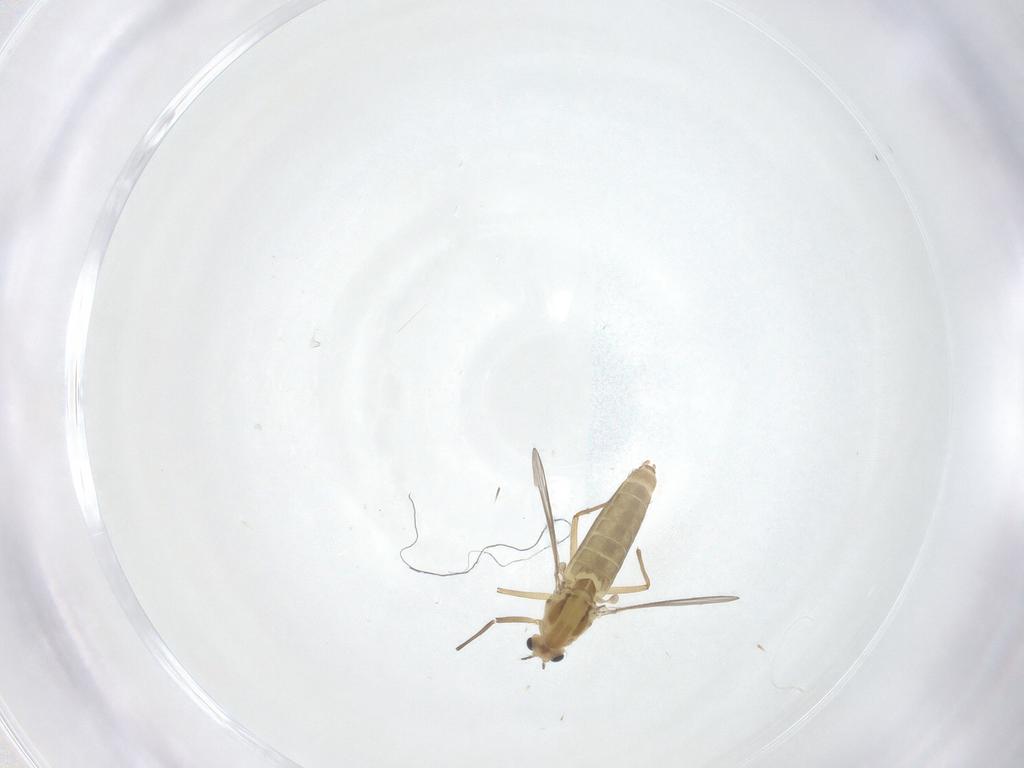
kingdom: Animalia
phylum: Arthropoda
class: Insecta
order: Diptera
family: Chironomidae
